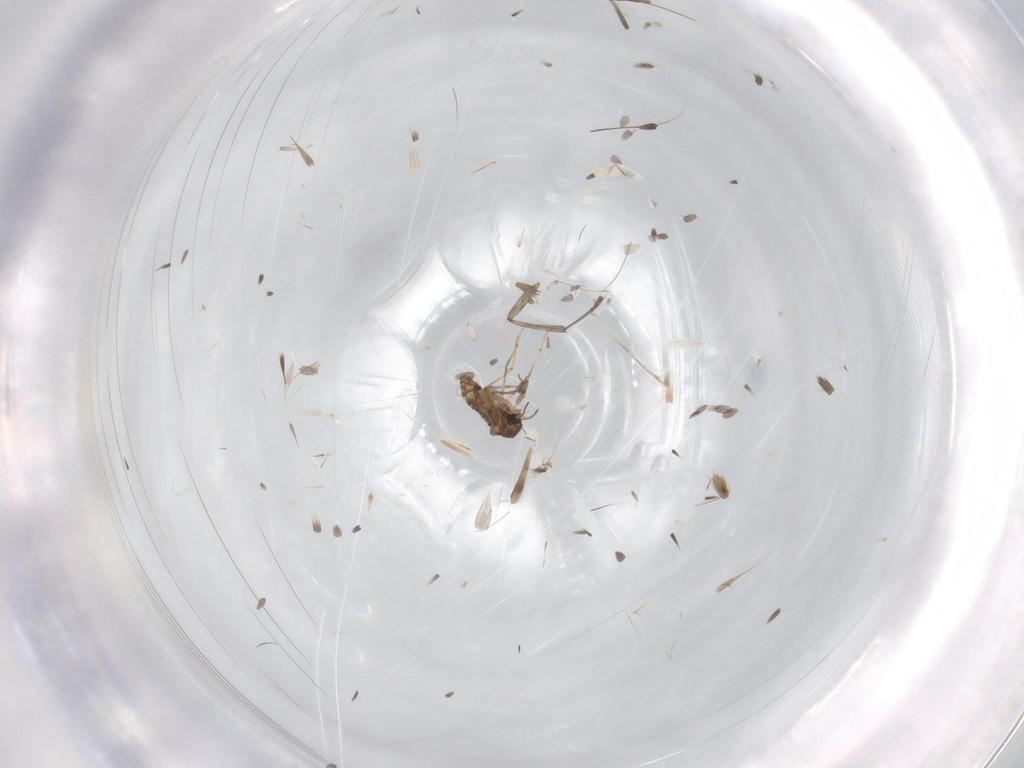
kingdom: Animalia
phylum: Arthropoda
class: Insecta
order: Diptera
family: Psychodidae
